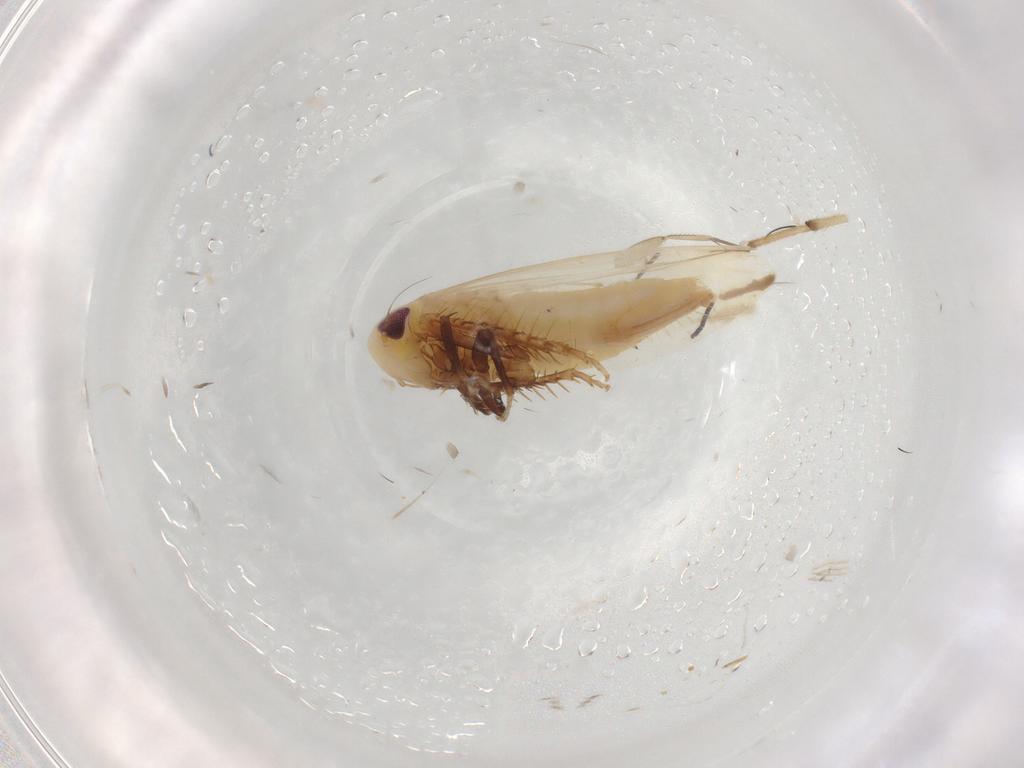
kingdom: Animalia
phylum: Arthropoda
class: Insecta
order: Hemiptera
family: Cicadellidae
